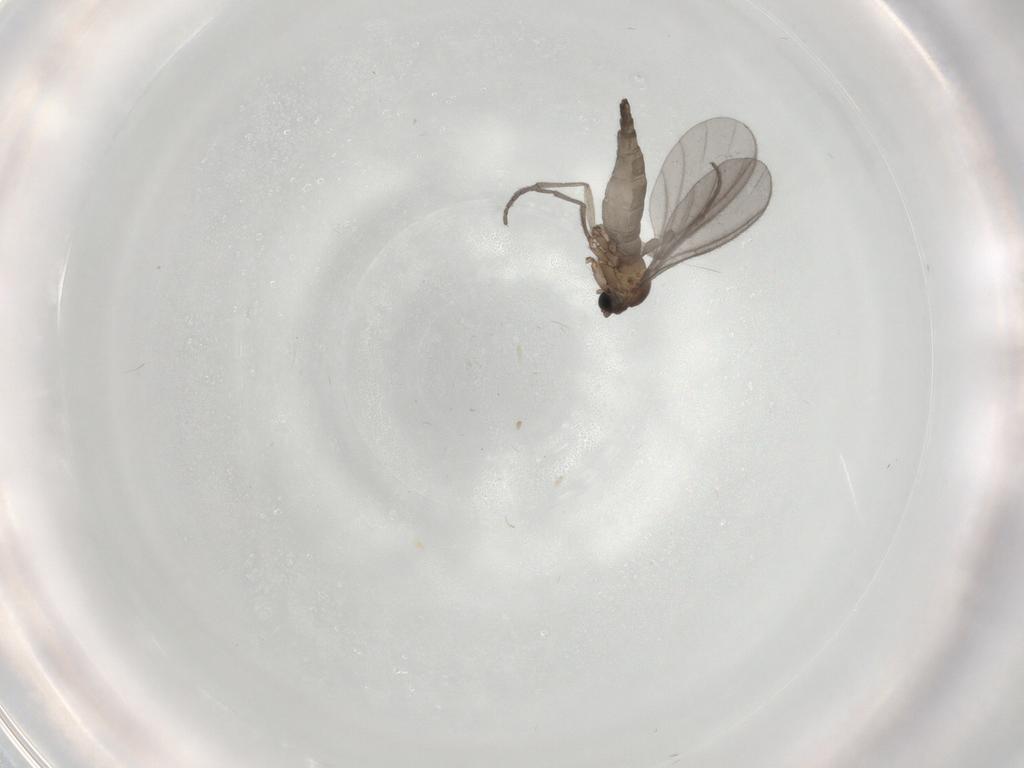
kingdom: Animalia
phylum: Arthropoda
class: Insecta
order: Diptera
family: Sciaridae
